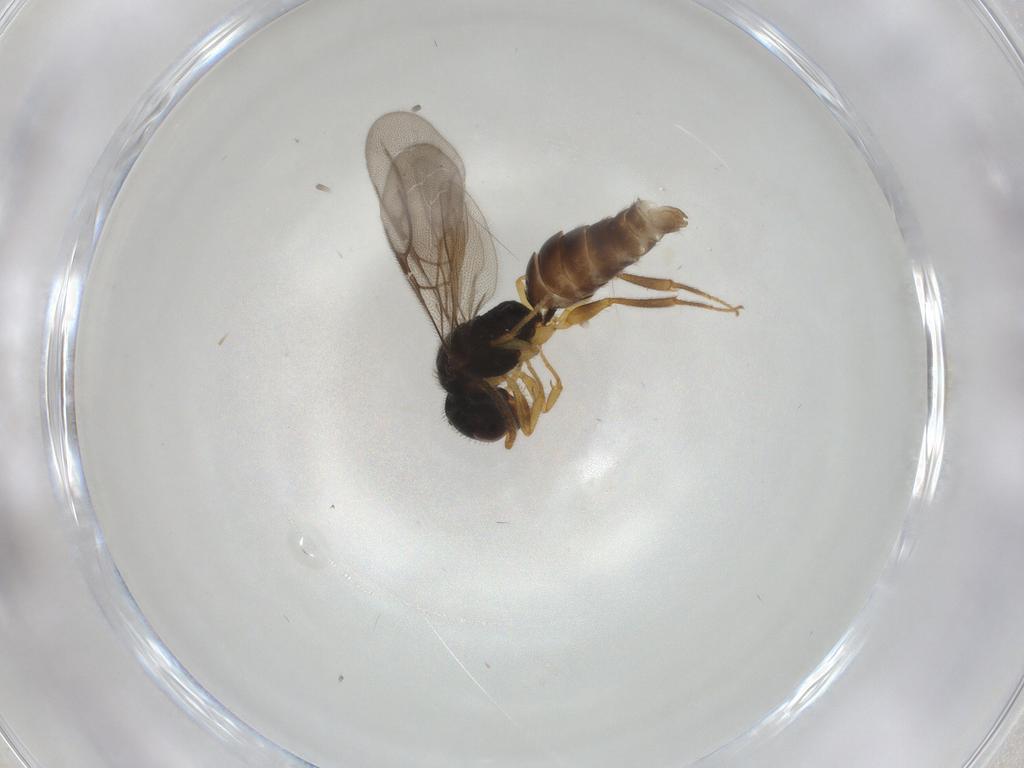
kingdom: Animalia
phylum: Arthropoda
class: Insecta
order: Hymenoptera
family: Bethylidae
